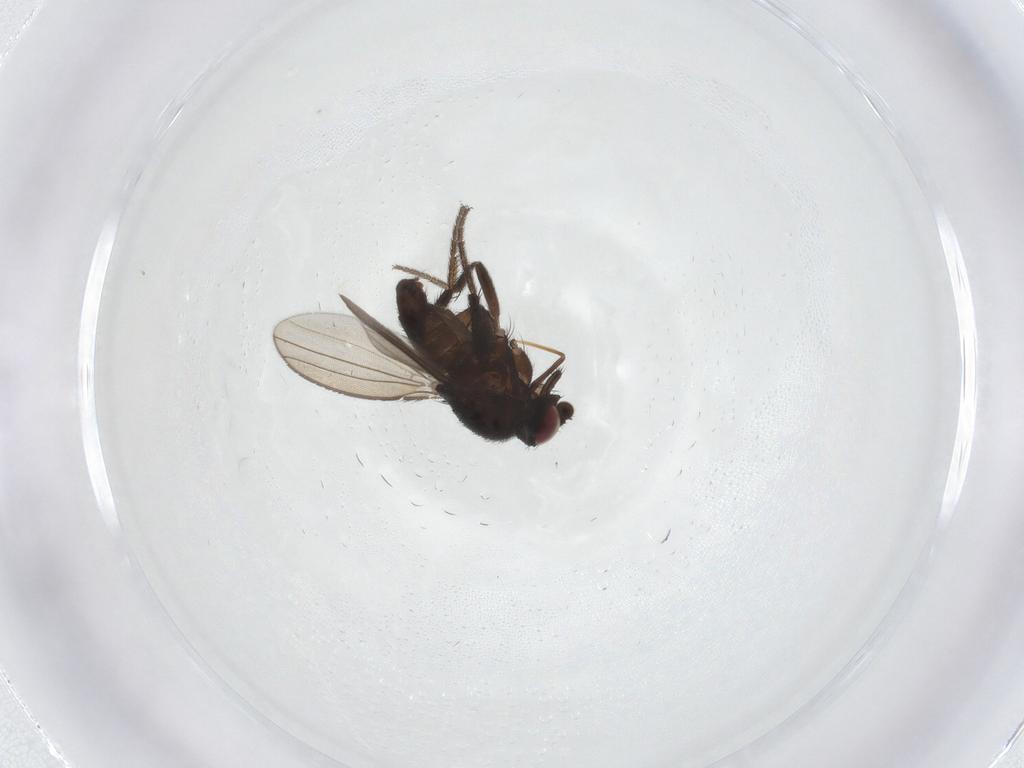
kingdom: Animalia
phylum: Arthropoda
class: Insecta
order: Diptera
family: Milichiidae
